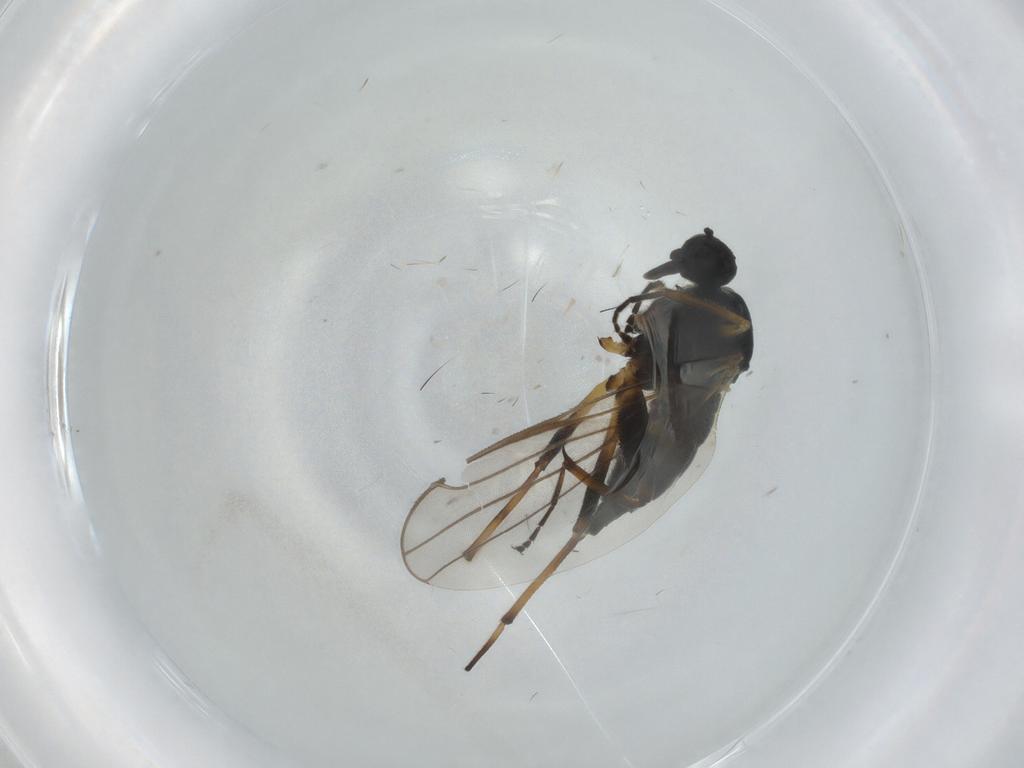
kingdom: Animalia
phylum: Arthropoda
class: Insecta
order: Diptera
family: Hybotidae
